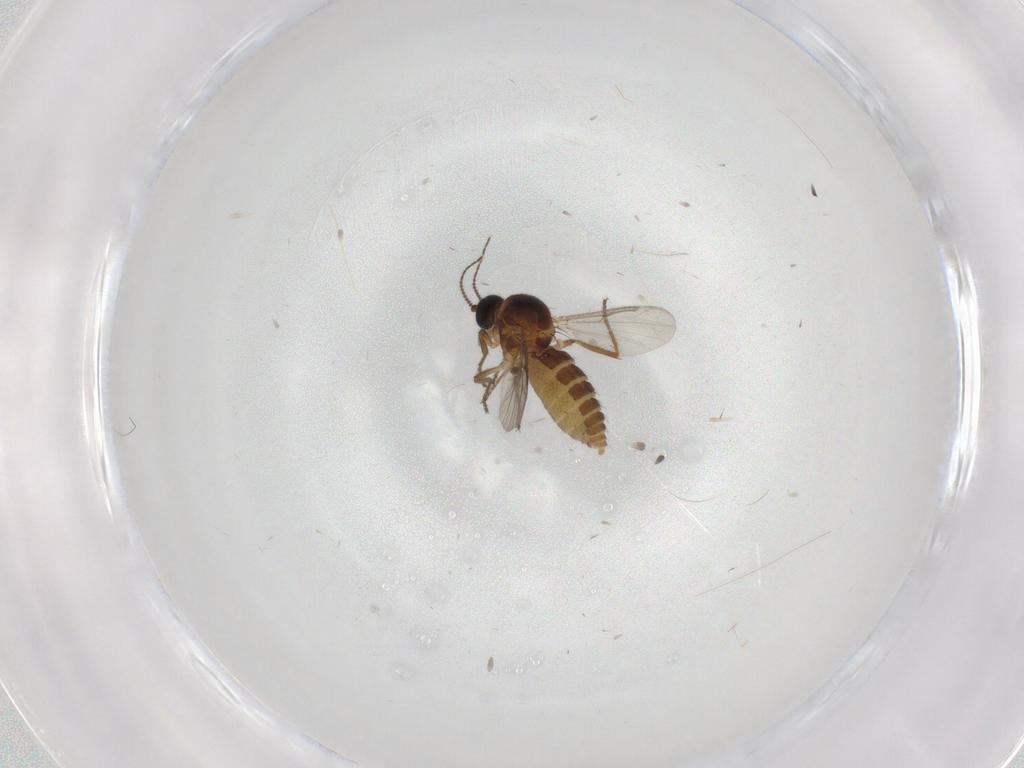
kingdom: Animalia
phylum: Arthropoda
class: Insecta
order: Diptera
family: Ceratopogonidae
